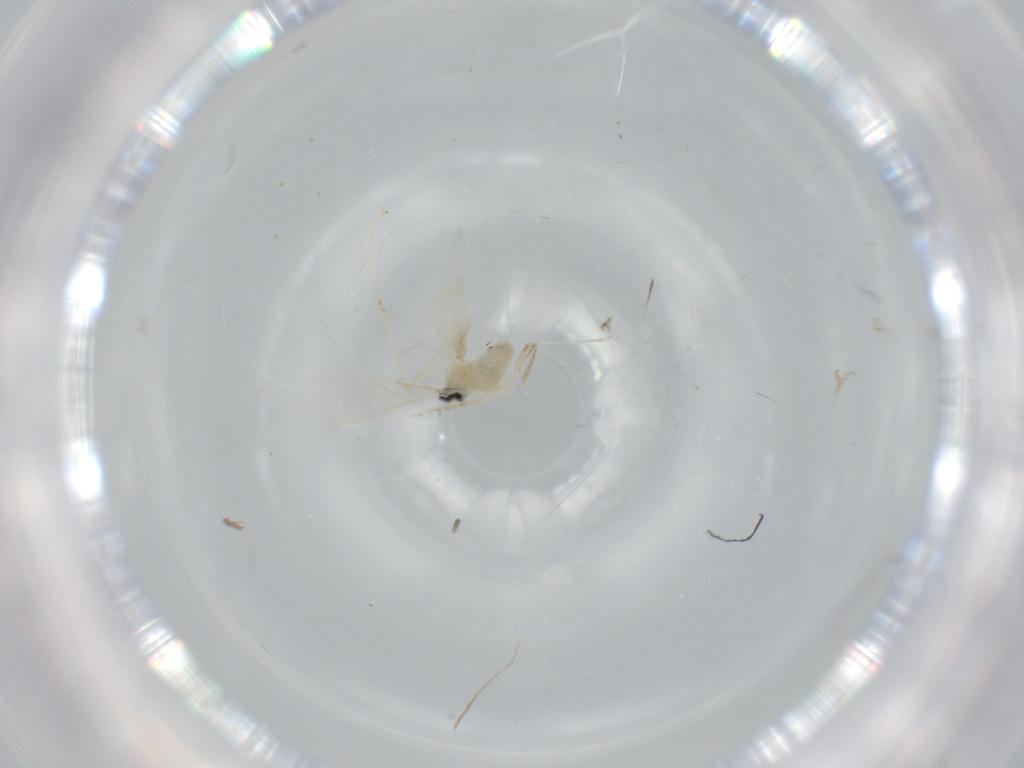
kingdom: Animalia
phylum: Arthropoda
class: Insecta
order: Diptera
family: Cecidomyiidae
